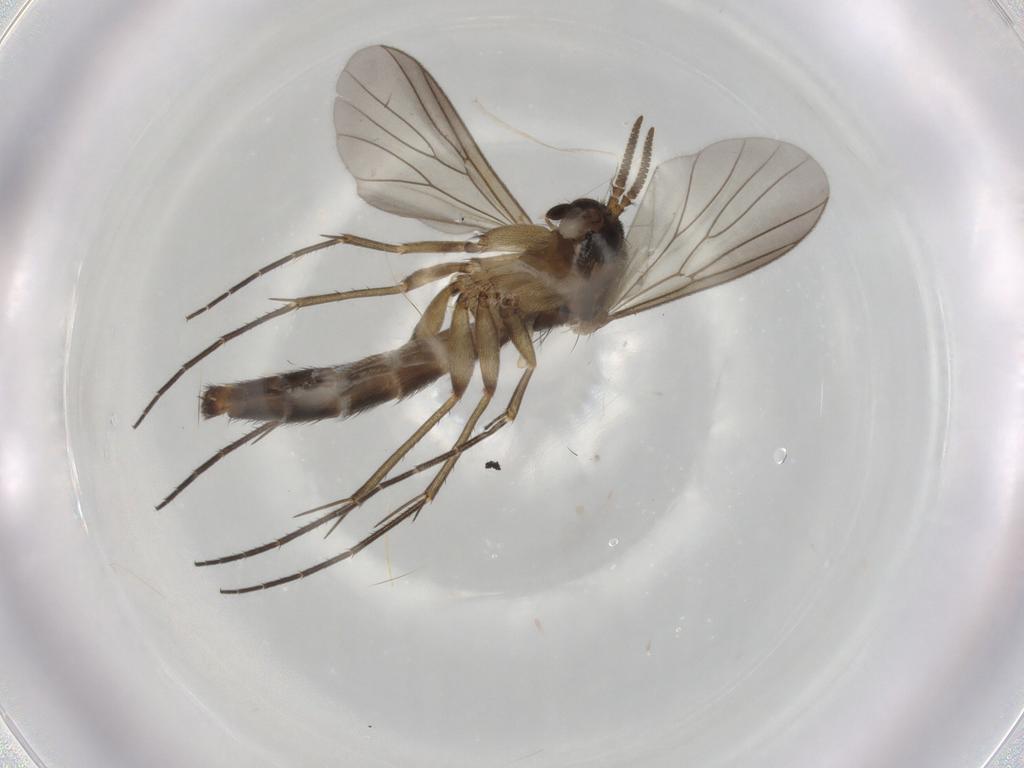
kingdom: Animalia
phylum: Arthropoda
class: Insecta
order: Diptera
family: Mycetophilidae
